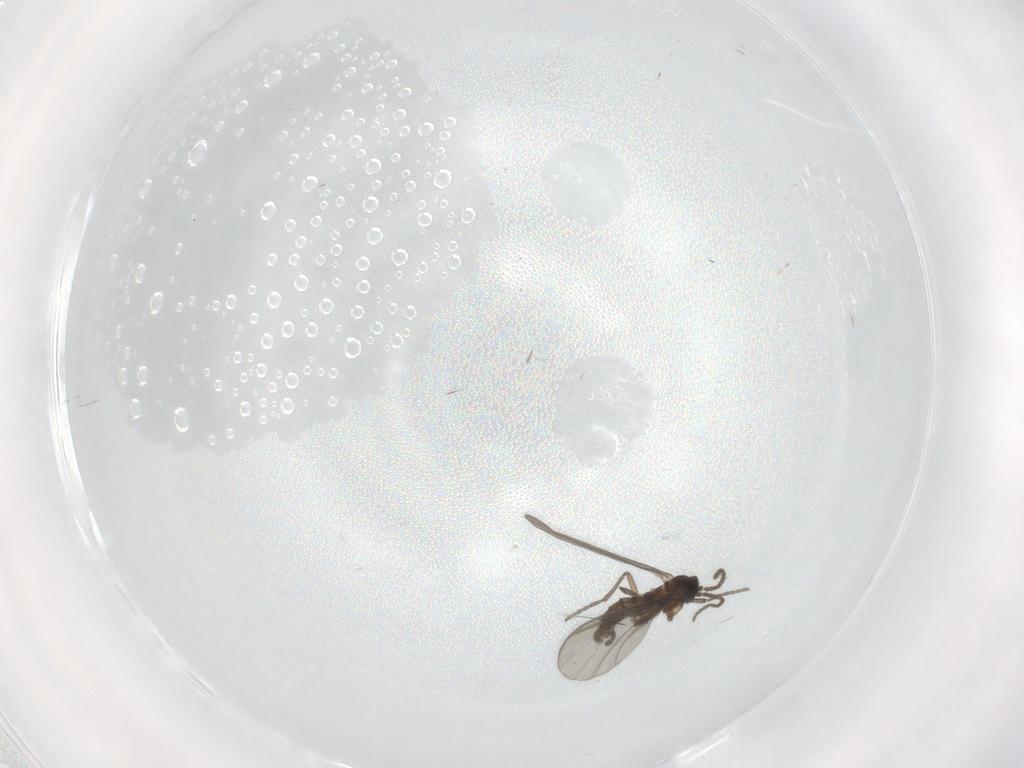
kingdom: Animalia
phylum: Arthropoda
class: Insecta
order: Diptera
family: Sciaridae
